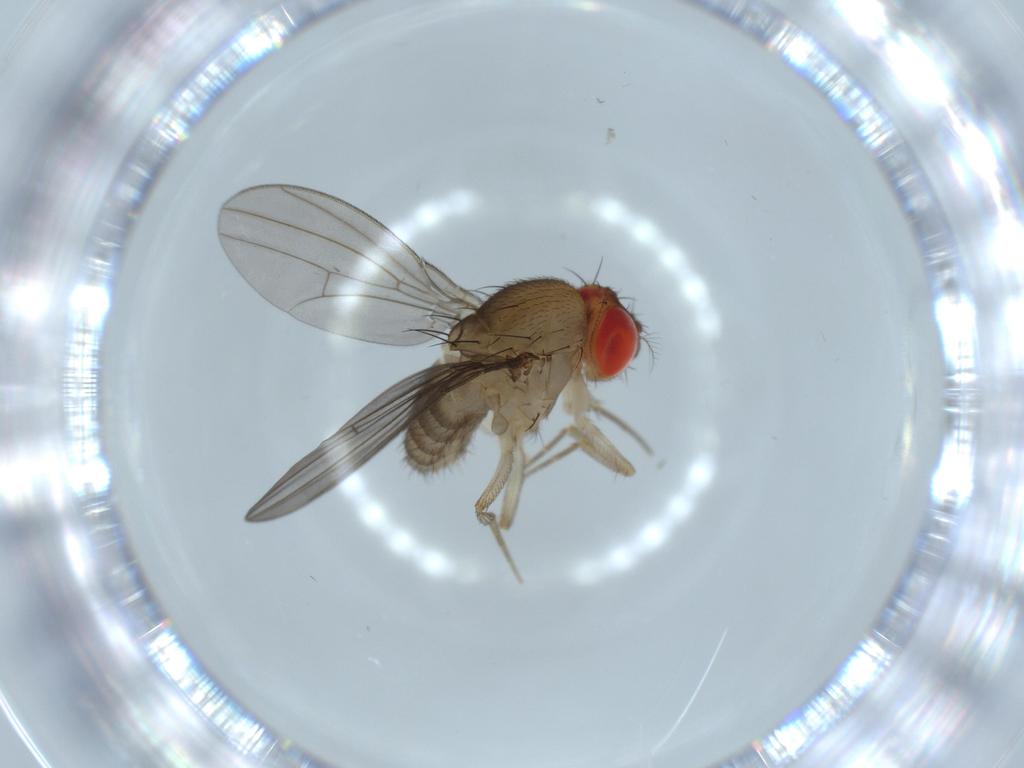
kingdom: Animalia
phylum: Arthropoda
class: Insecta
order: Diptera
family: Drosophilidae
